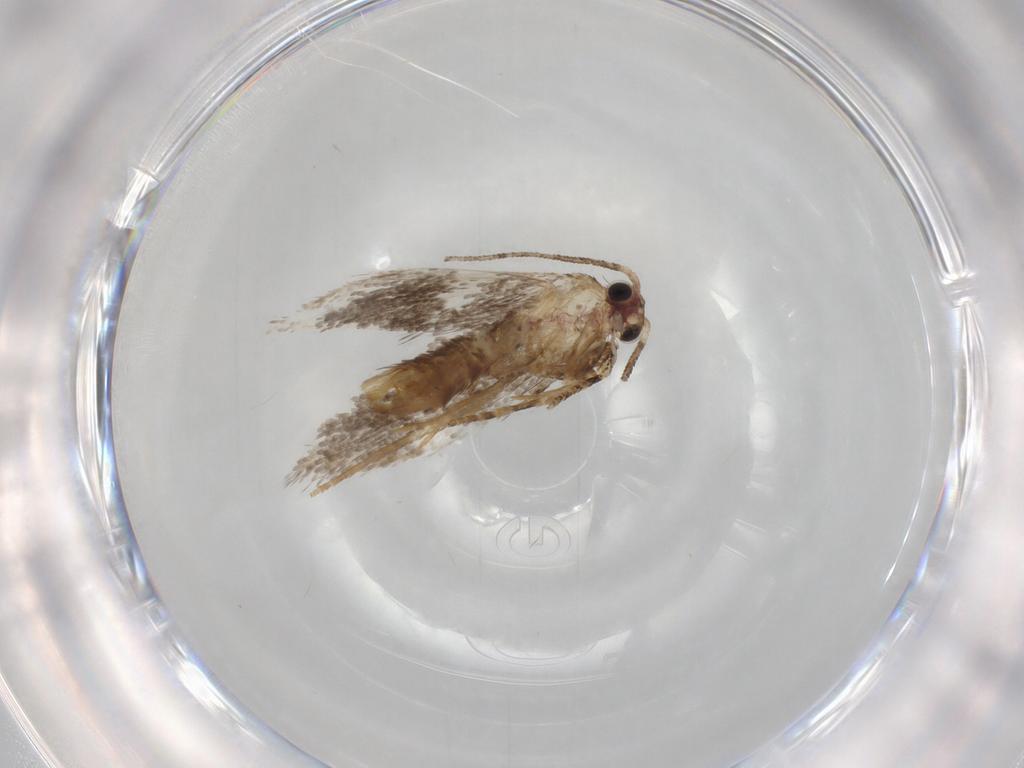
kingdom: Animalia
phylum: Arthropoda
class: Insecta
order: Lepidoptera
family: Tineidae
